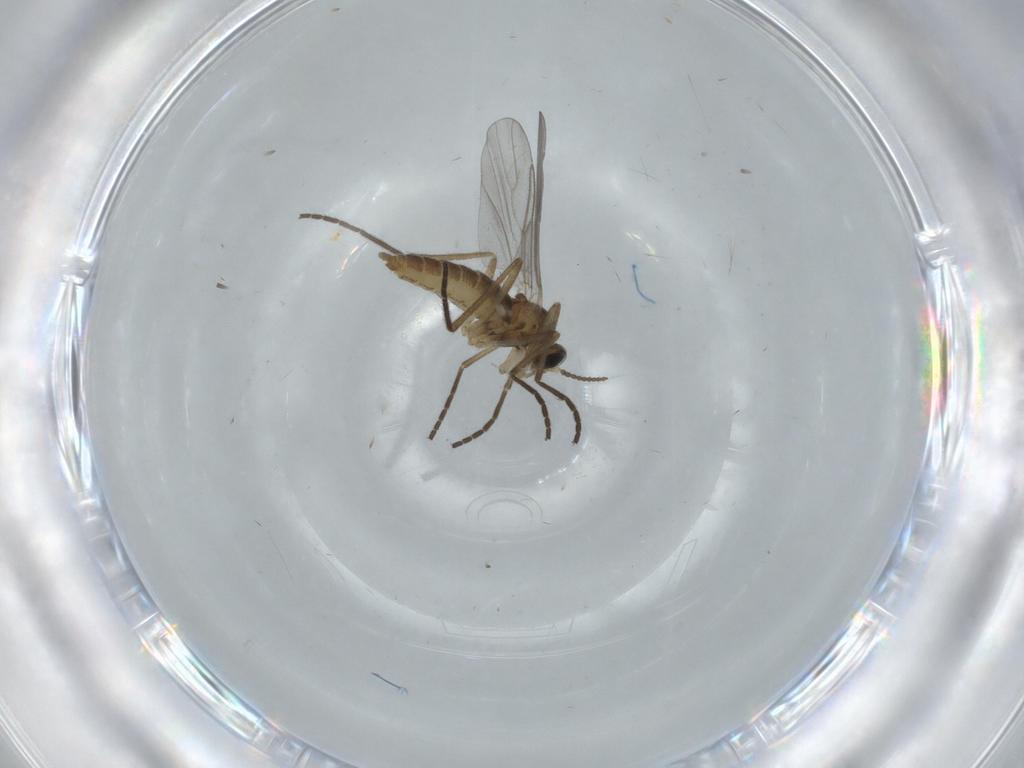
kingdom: Animalia
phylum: Arthropoda
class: Insecta
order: Diptera
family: Cecidomyiidae
